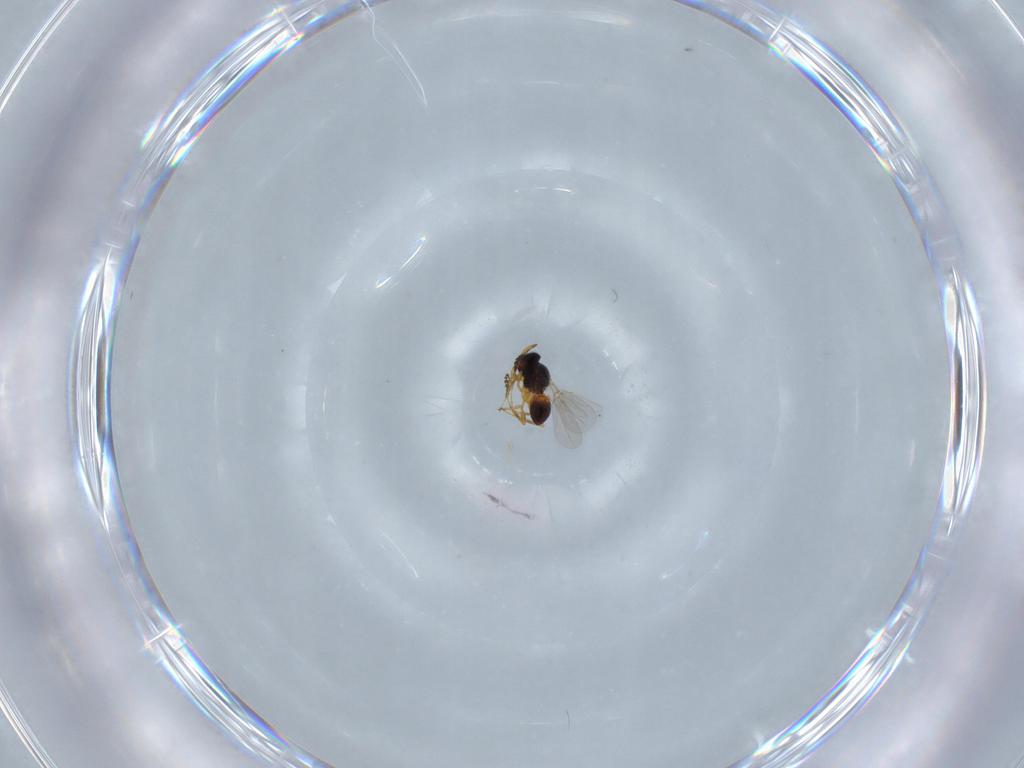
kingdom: Animalia
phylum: Arthropoda
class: Insecta
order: Hymenoptera
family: Platygastridae
